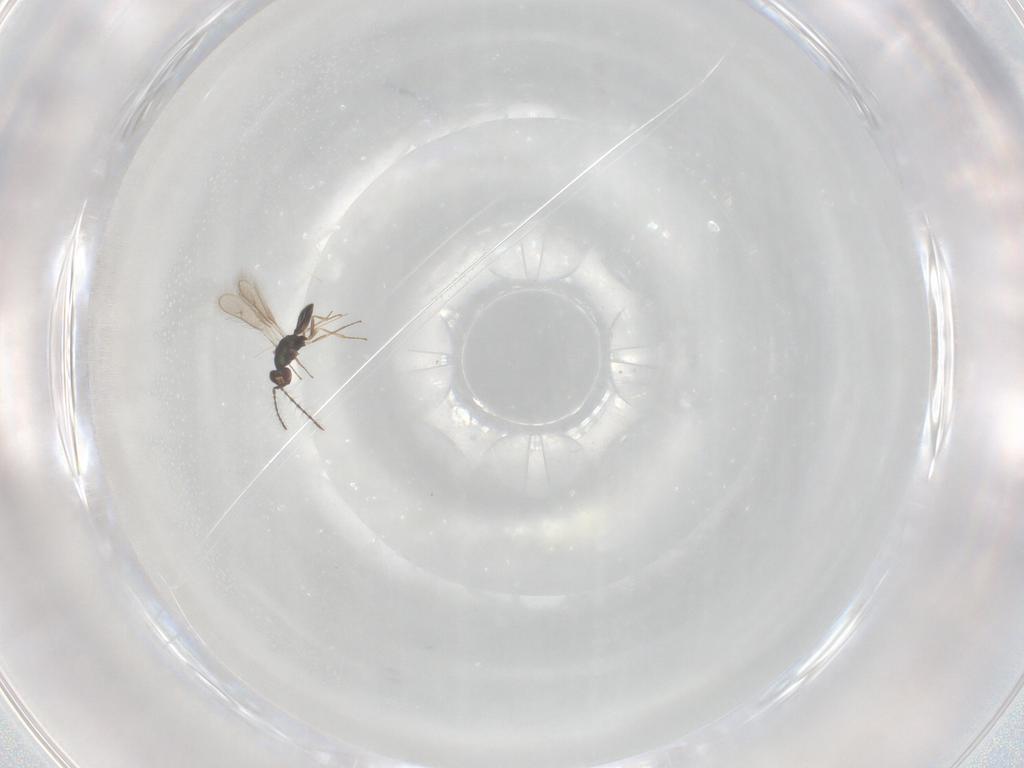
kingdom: Animalia
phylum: Arthropoda
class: Insecta
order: Hymenoptera
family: Pteromalidae
